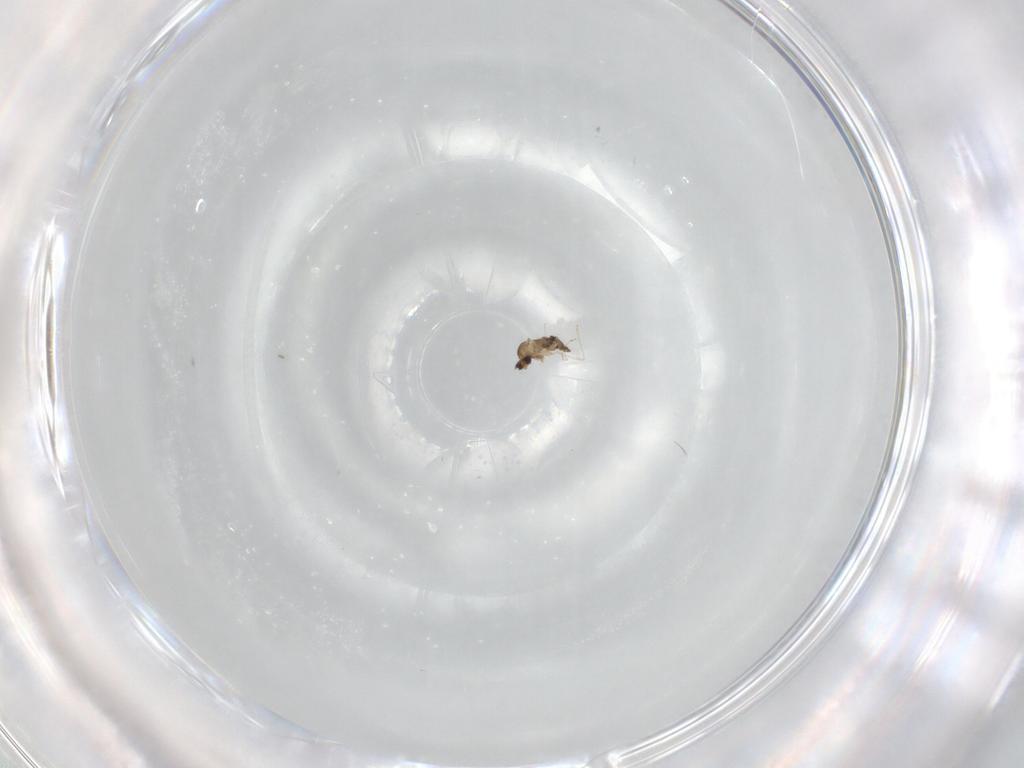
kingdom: Animalia
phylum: Arthropoda
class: Insecta
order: Diptera
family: Cecidomyiidae
